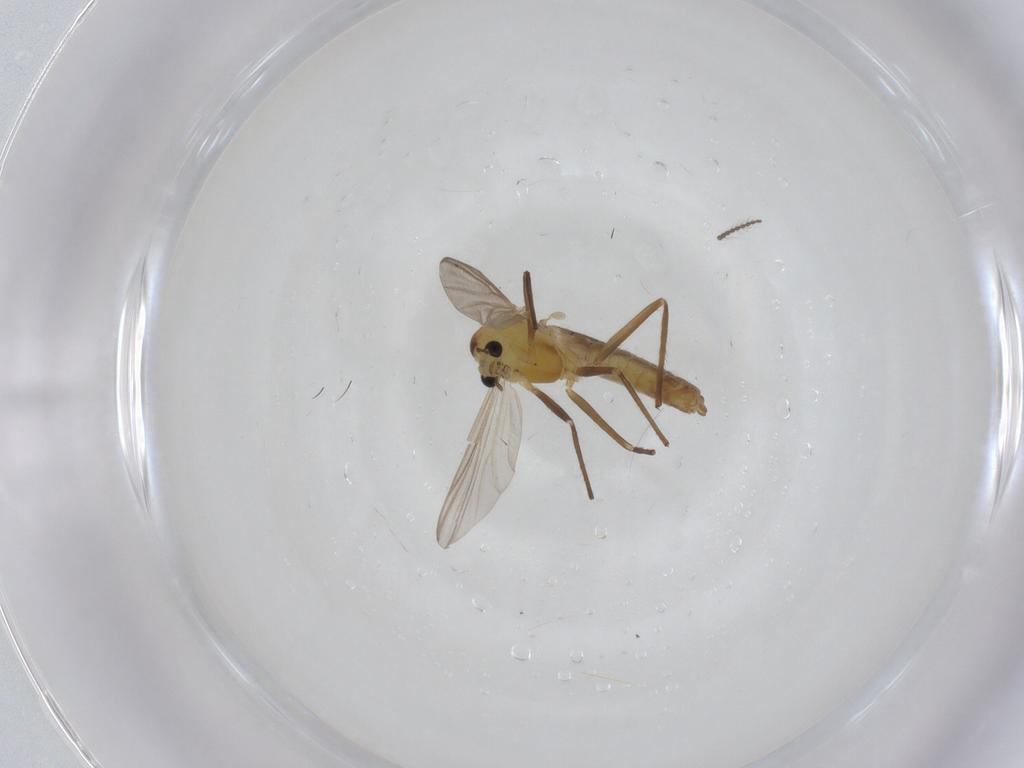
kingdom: Animalia
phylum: Arthropoda
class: Insecta
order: Diptera
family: Chironomidae
